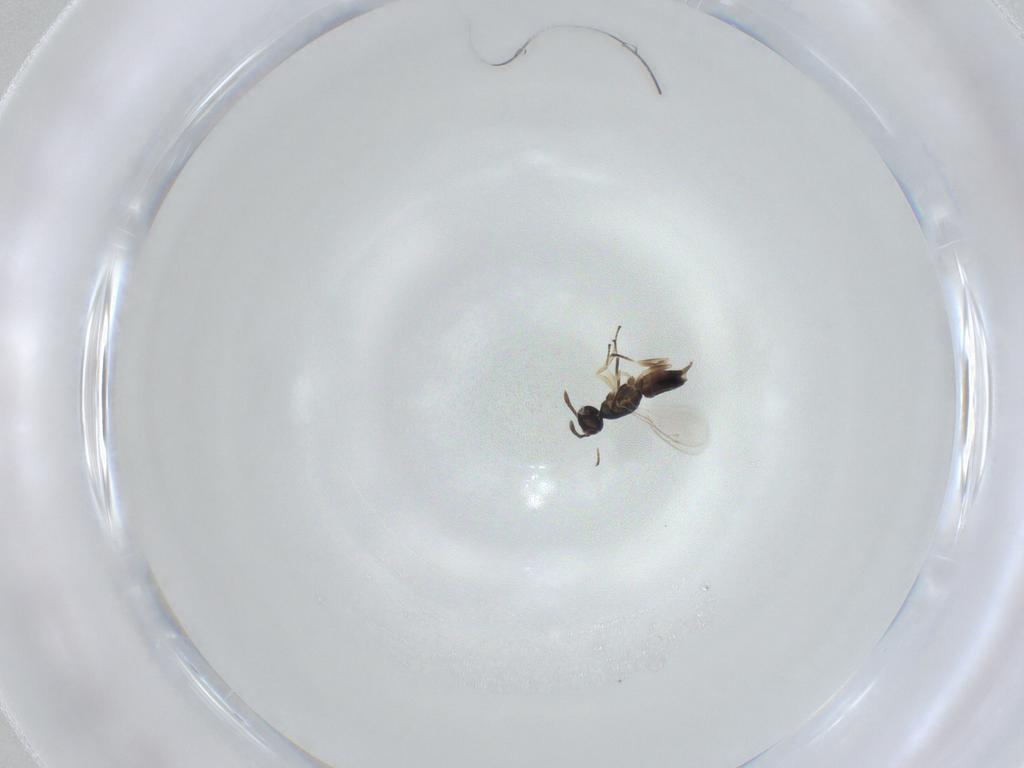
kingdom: Animalia
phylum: Arthropoda
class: Insecta
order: Hymenoptera
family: Eupelmidae
